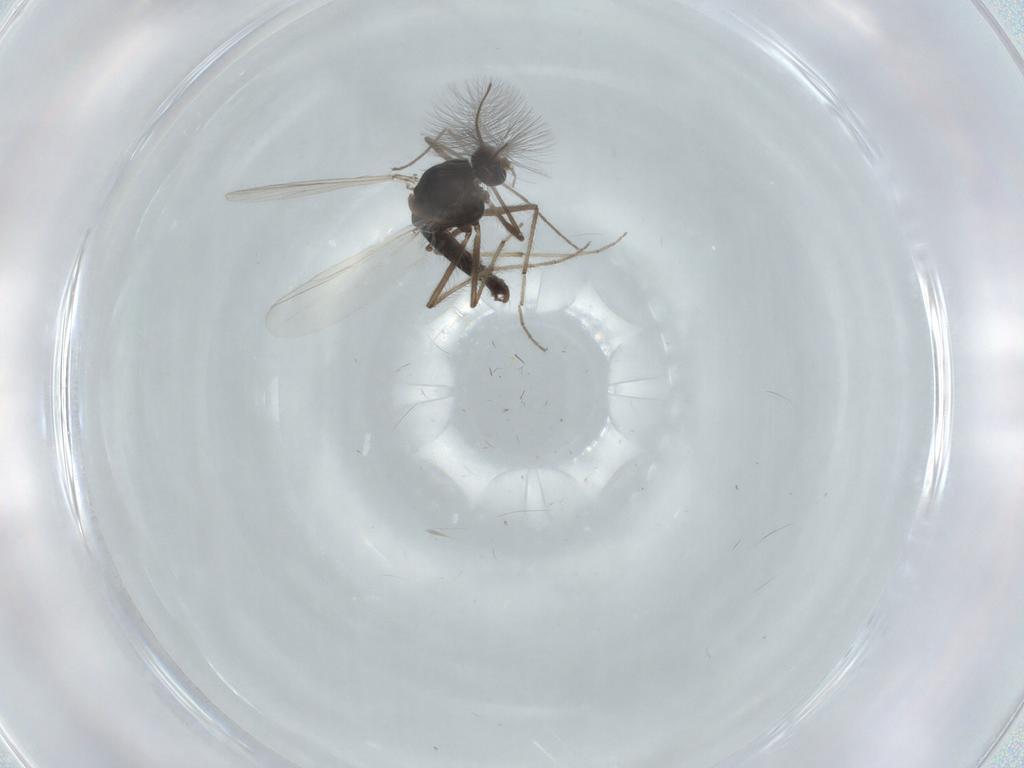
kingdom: Animalia
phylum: Arthropoda
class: Insecta
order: Diptera
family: Chironomidae
